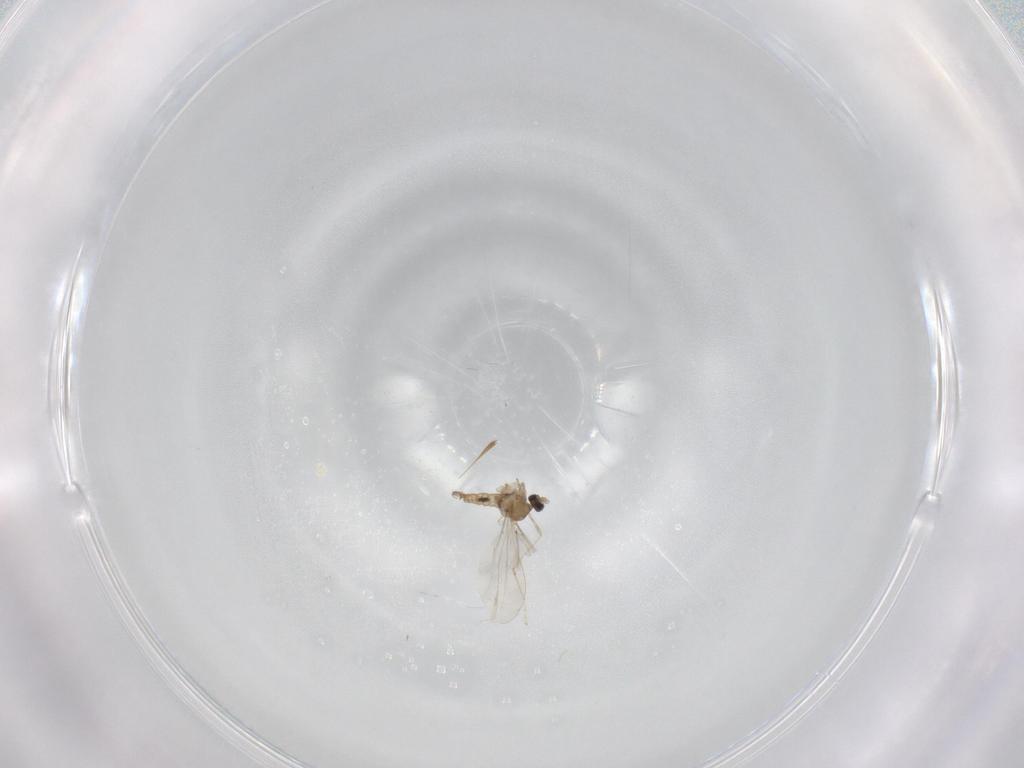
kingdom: Animalia
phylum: Arthropoda
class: Insecta
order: Diptera
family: Cecidomyiidae
